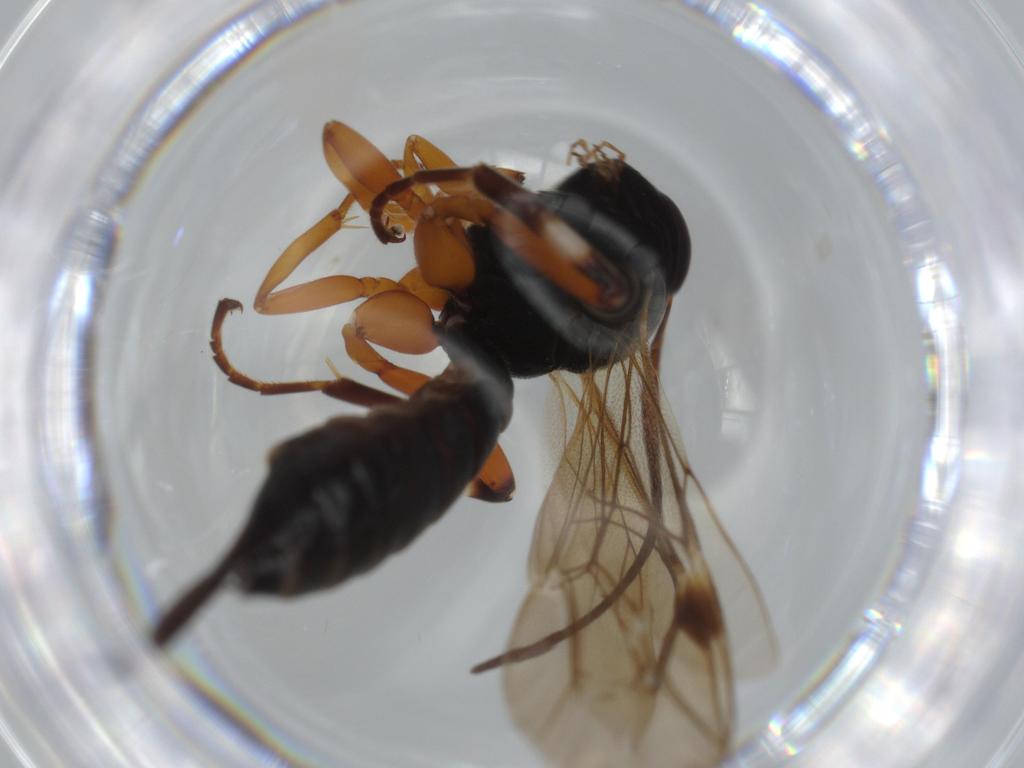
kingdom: Animalia
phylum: Arthropoda
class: Insecta
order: Hymenoptera
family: Ichneumonidae
